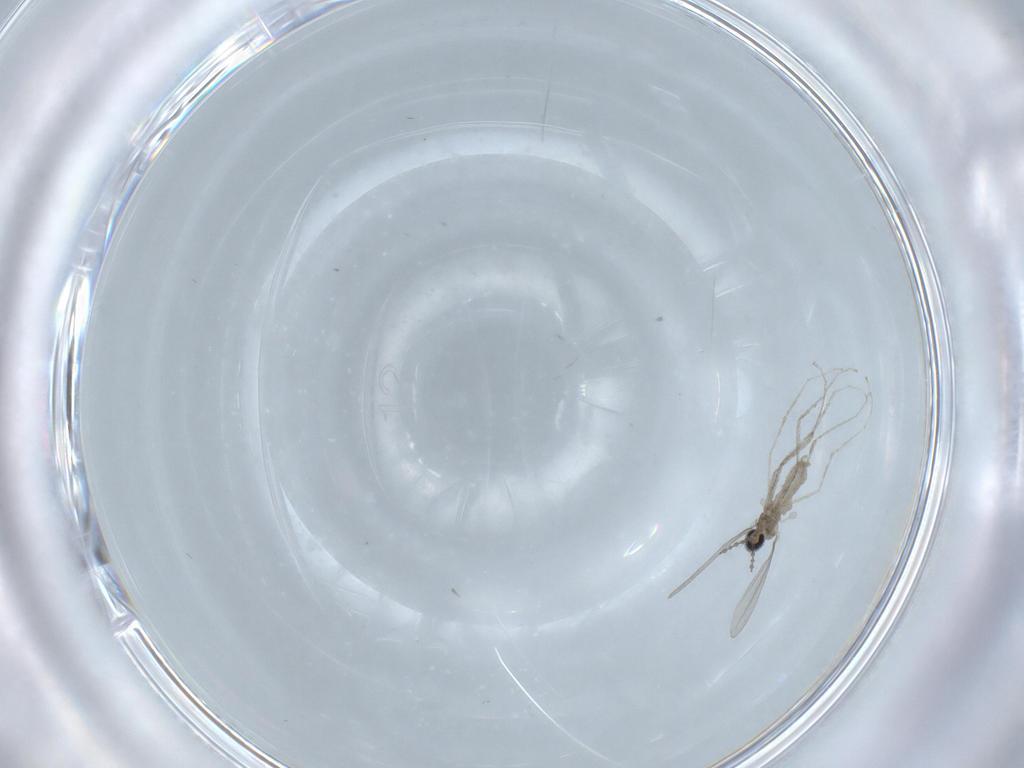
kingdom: Animalia
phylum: Arthropoda
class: Insecta
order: Diptera
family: Cecidomyiidae
